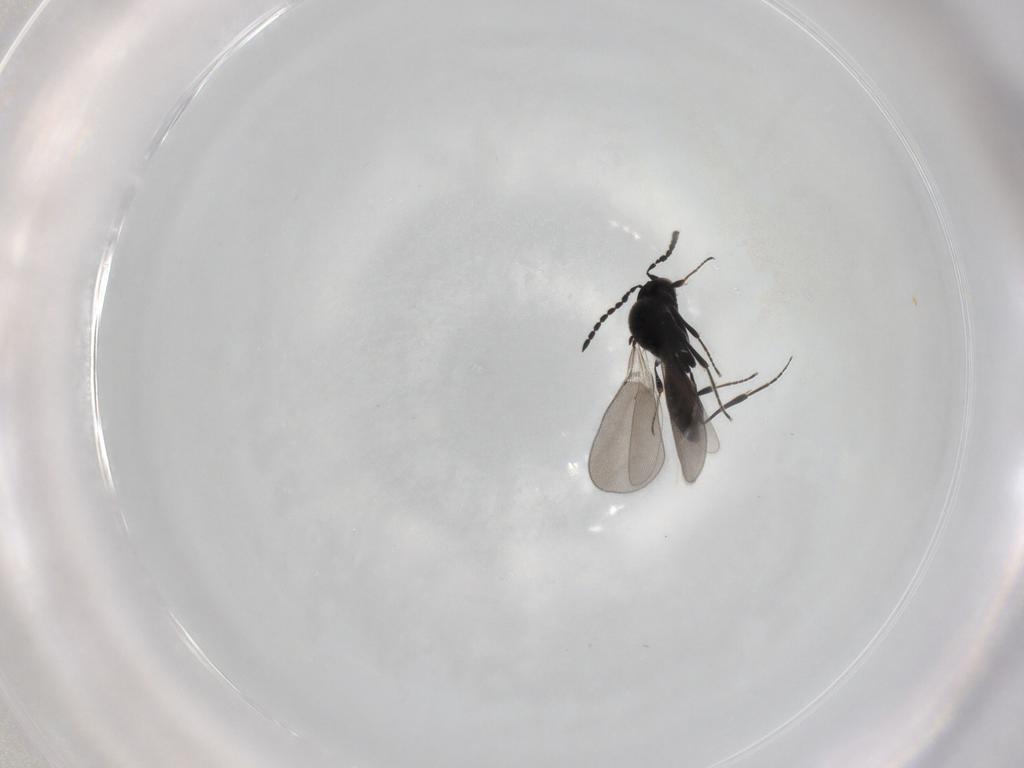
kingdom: Animalia
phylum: Arthropoda
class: Insecta
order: Hymenoptera
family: Platygastridae
